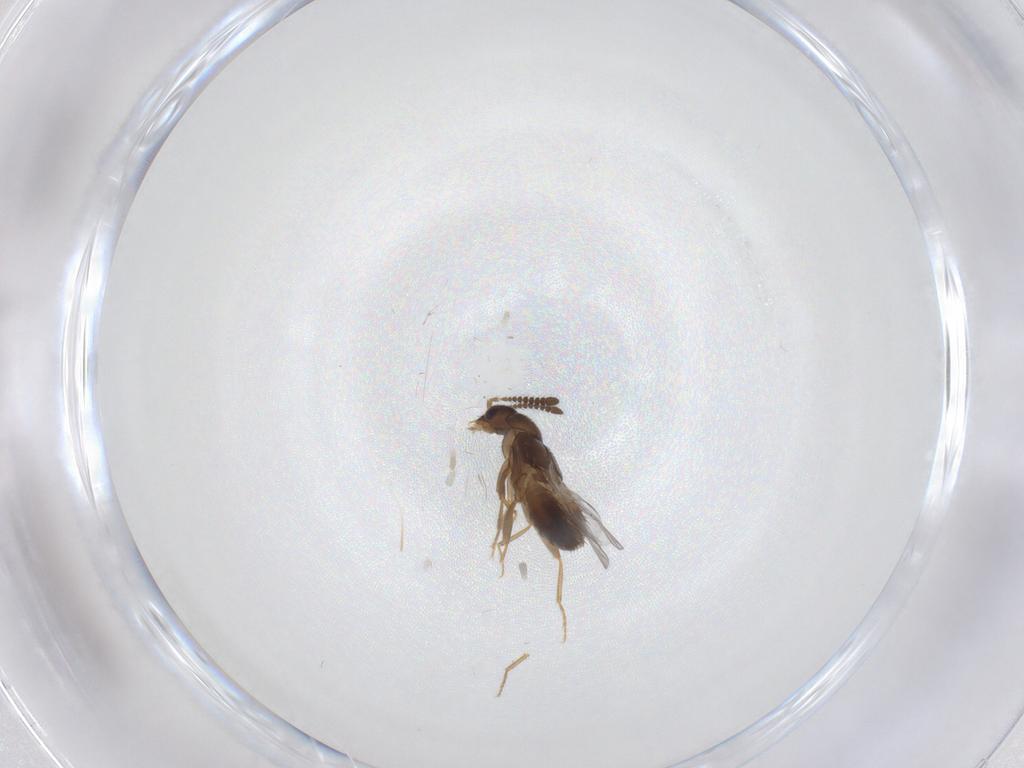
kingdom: Animalia
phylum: Arthropoda
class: Insecta
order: Coleoptera
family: Staphylinidae
